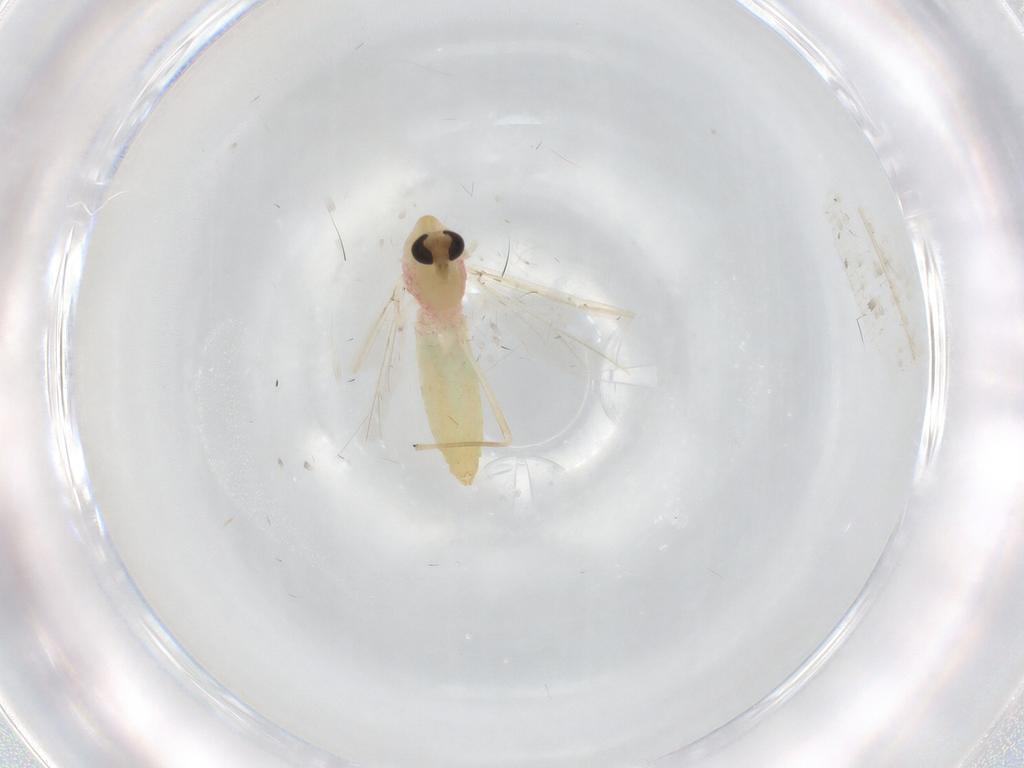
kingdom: Animalia
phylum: Arthropoda
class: Insecta
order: Diptera
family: Chironomidae
